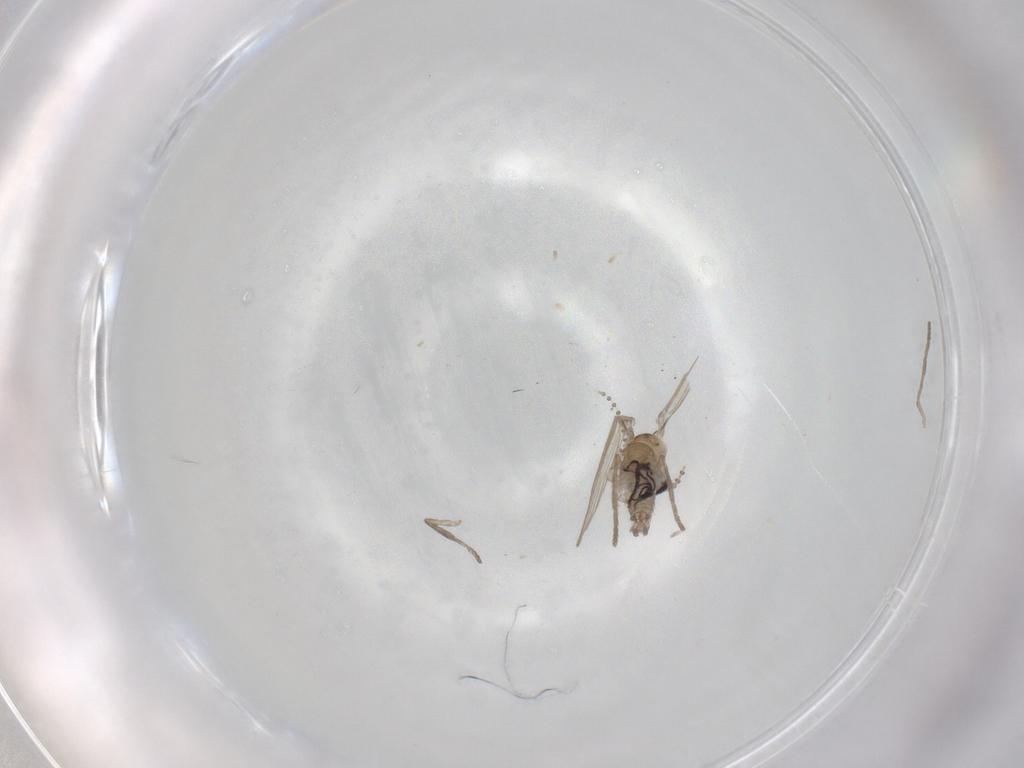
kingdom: Animalia
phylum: Arthropoda
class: Insecta
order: Diptera
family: Psychodidae
